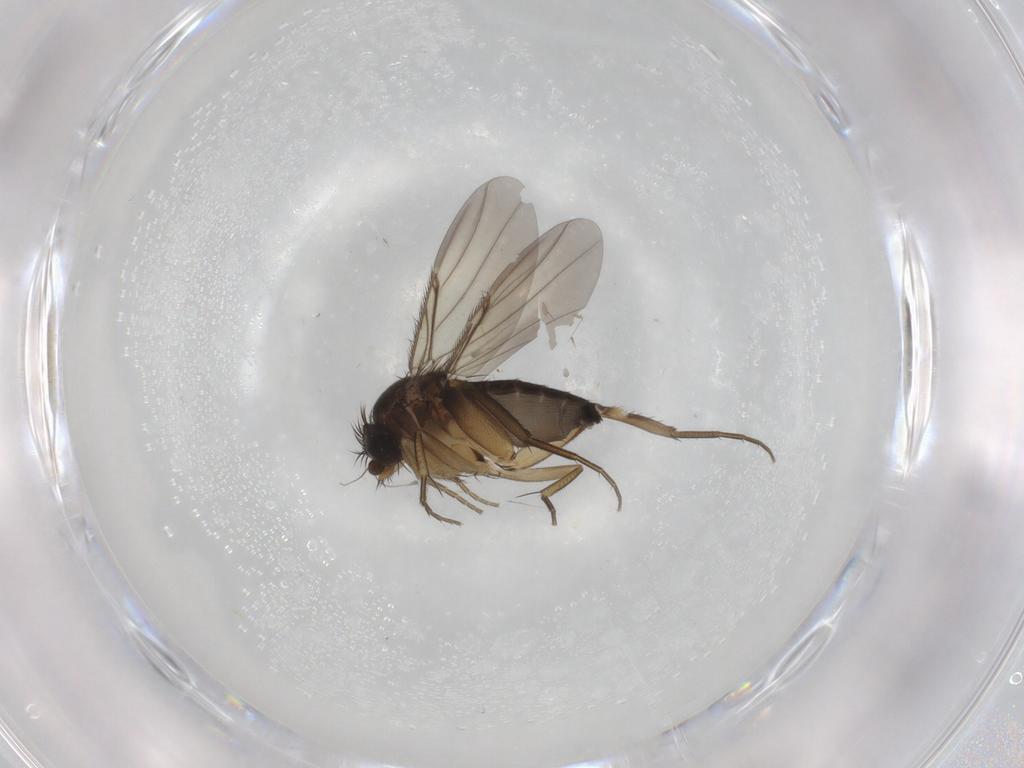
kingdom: Animalia
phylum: Arthropoda
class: Insecta
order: Diptera
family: Phoridae
